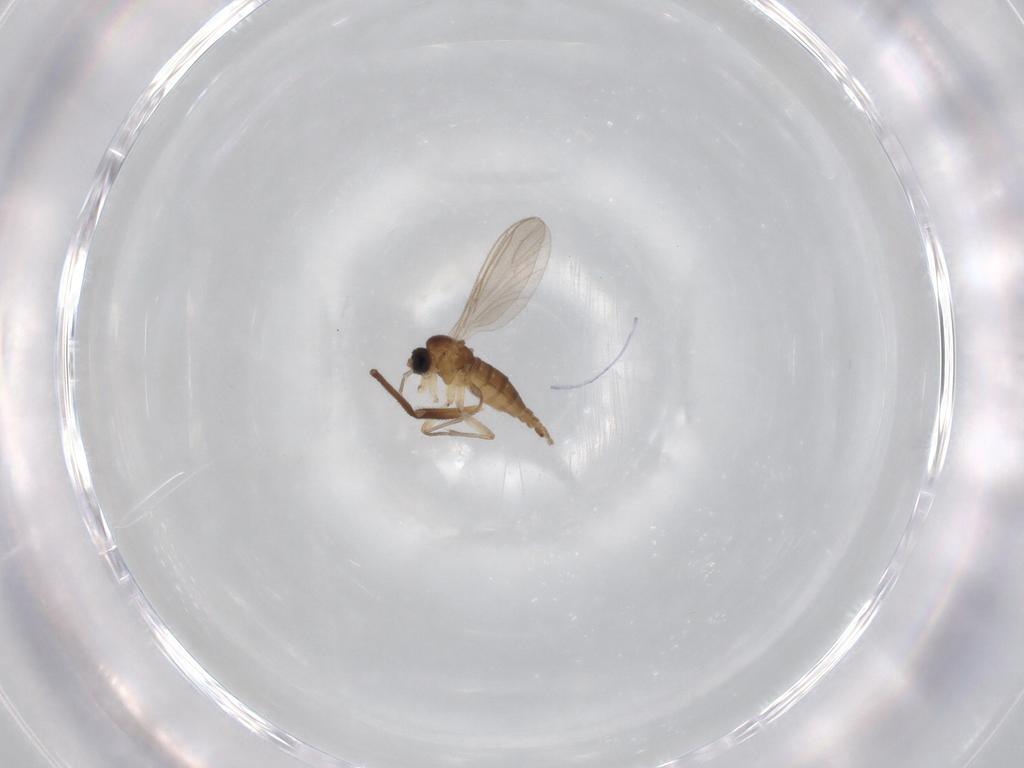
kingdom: Animalia
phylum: Arthropoda
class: Insecta
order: Diptera
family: Sciaridae
